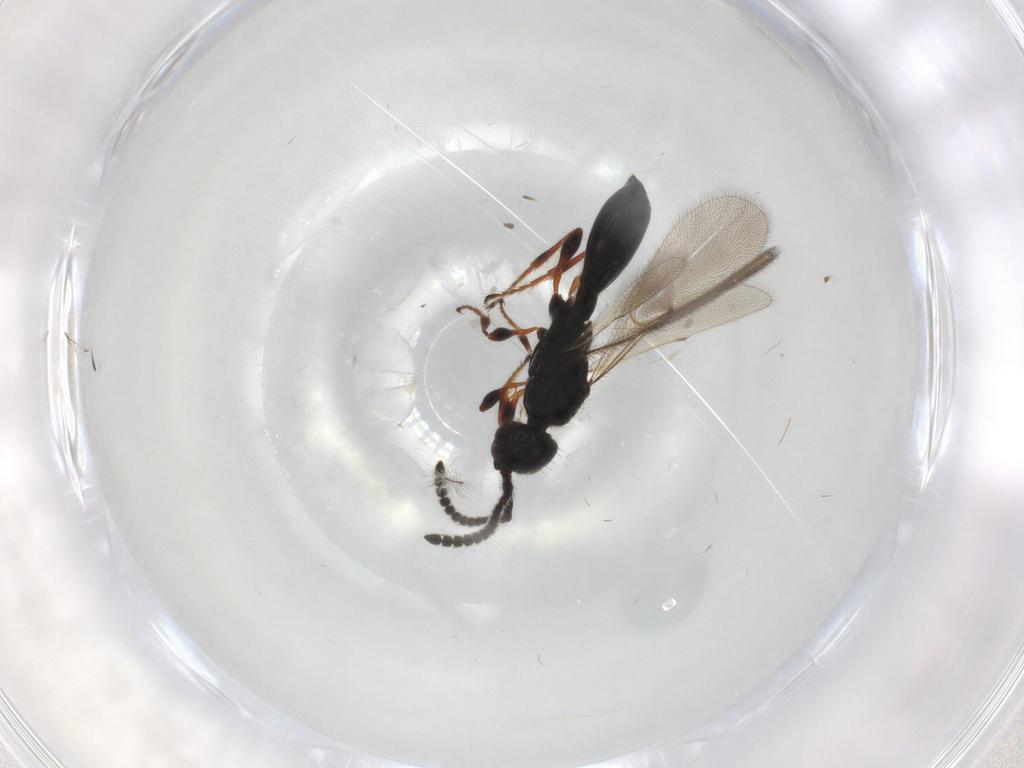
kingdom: Animalia
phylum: Arthropoda
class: Insecta
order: Hymenoptera
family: Diapriidae
